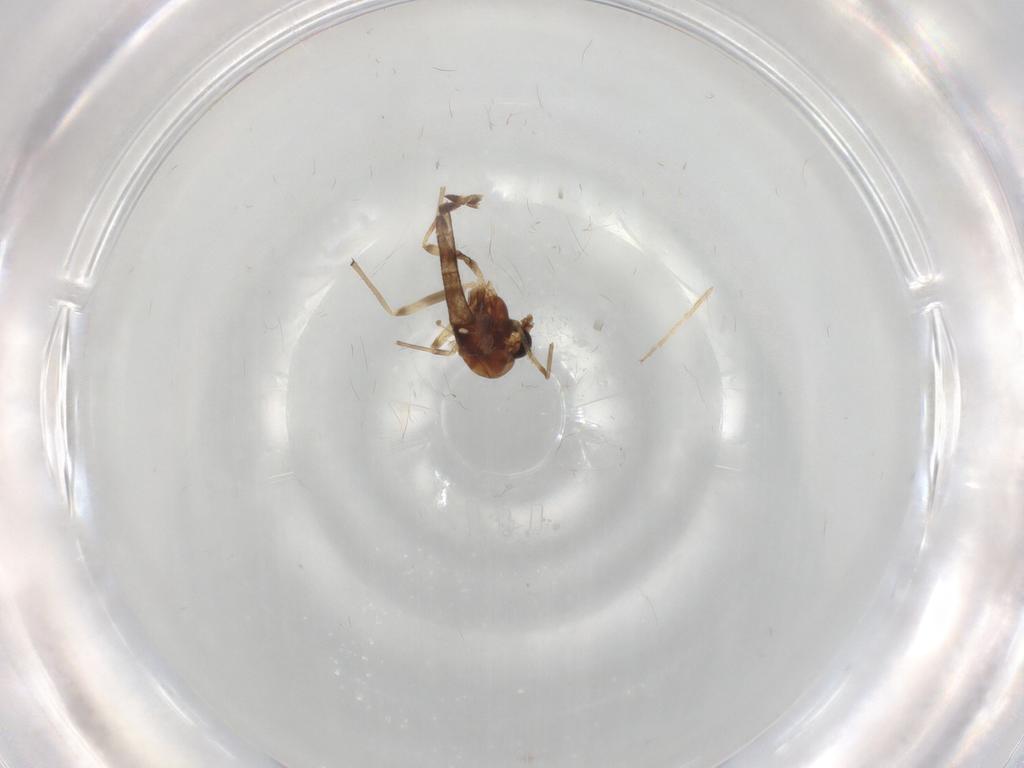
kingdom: Animalia
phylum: Arthropoda
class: Insecta
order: Diptera
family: Chironomidae
